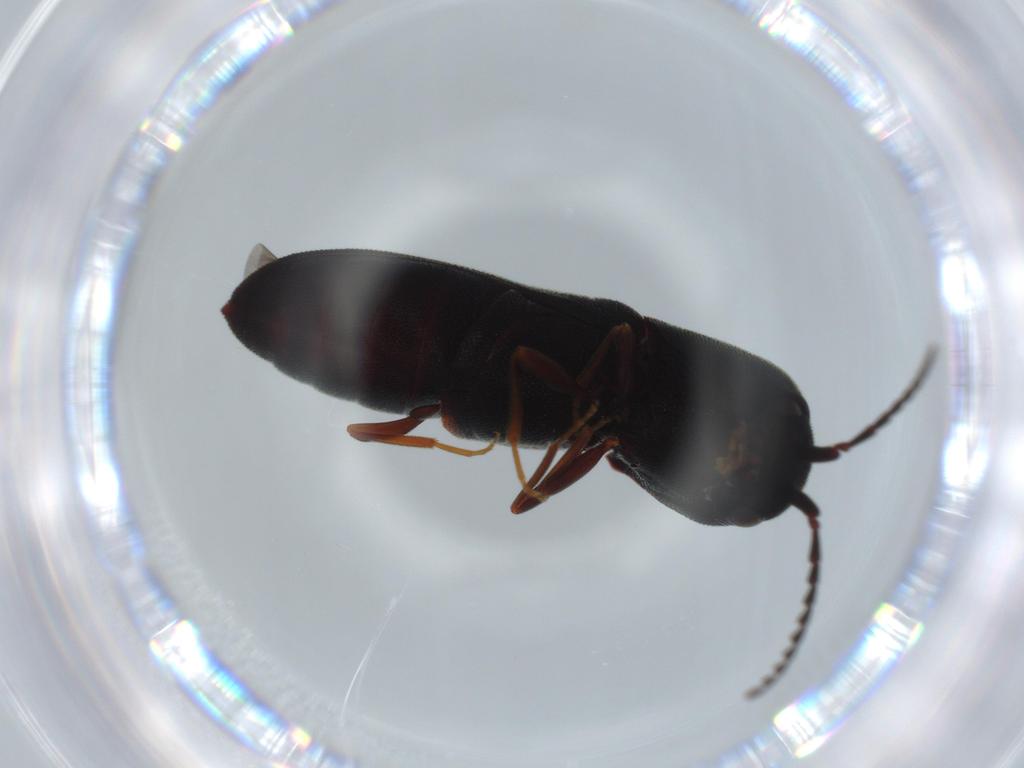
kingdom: Animalia
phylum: Arthropoda
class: Insecta
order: Coleoptera
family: Eucnemidae
